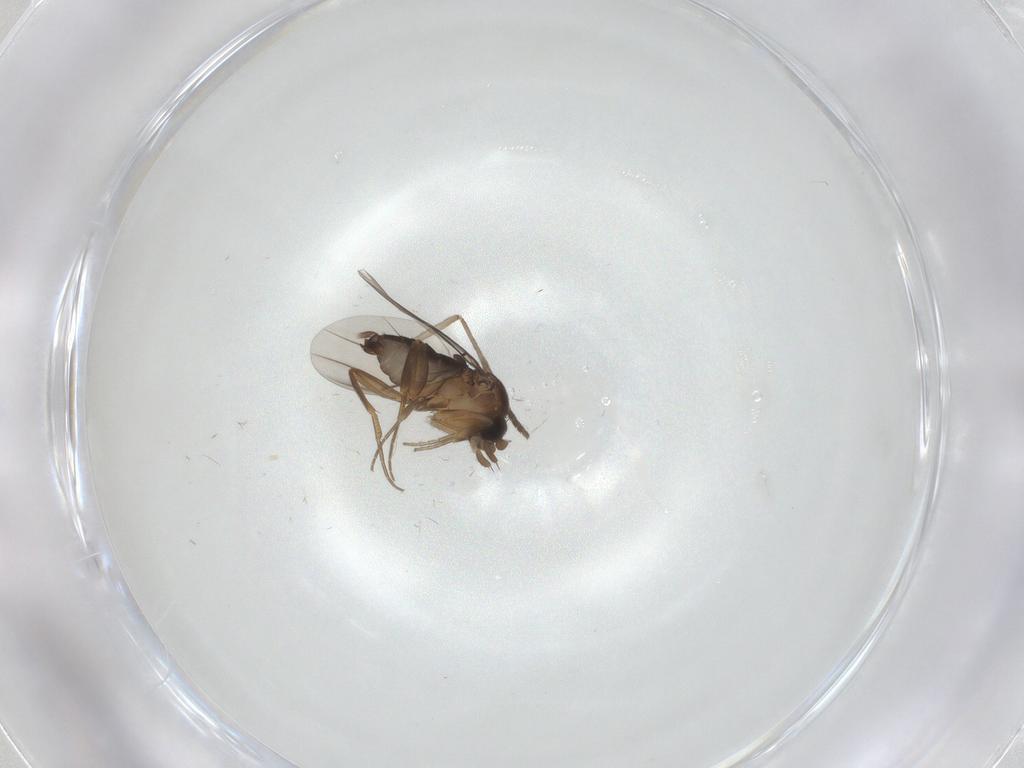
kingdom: Animalia
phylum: Arthropoda
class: Insecta
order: Diptera
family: Phoridae
